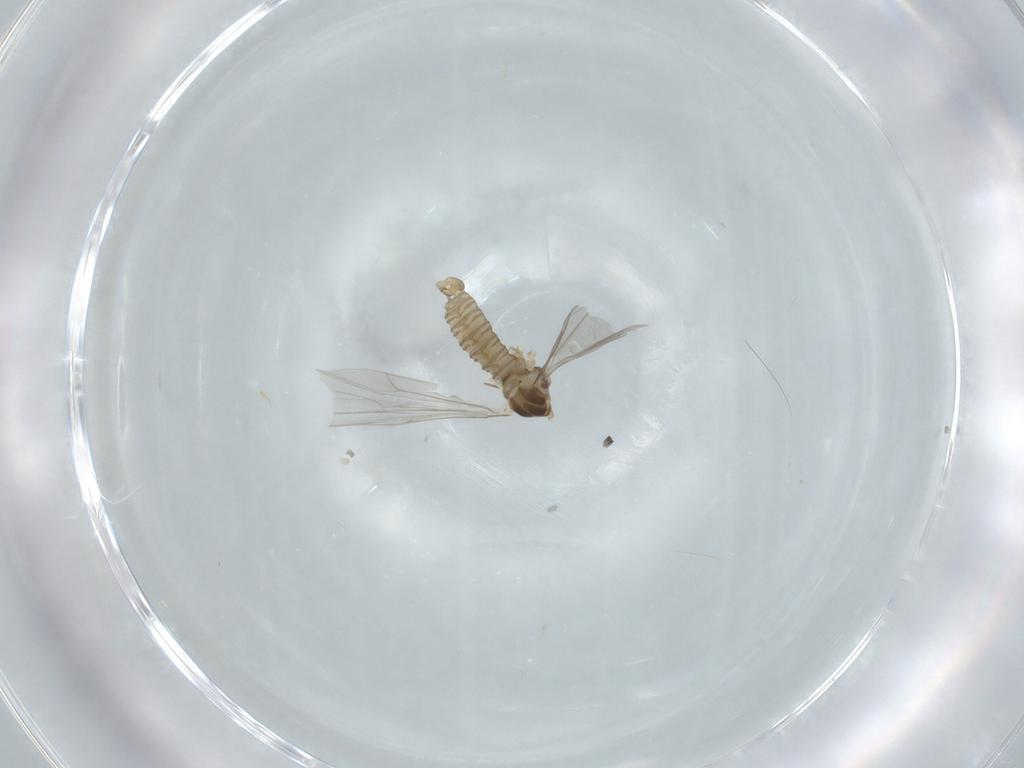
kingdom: Animalia
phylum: Arthropoda
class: Insecta
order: Diptera
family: Cecidomyiidae
